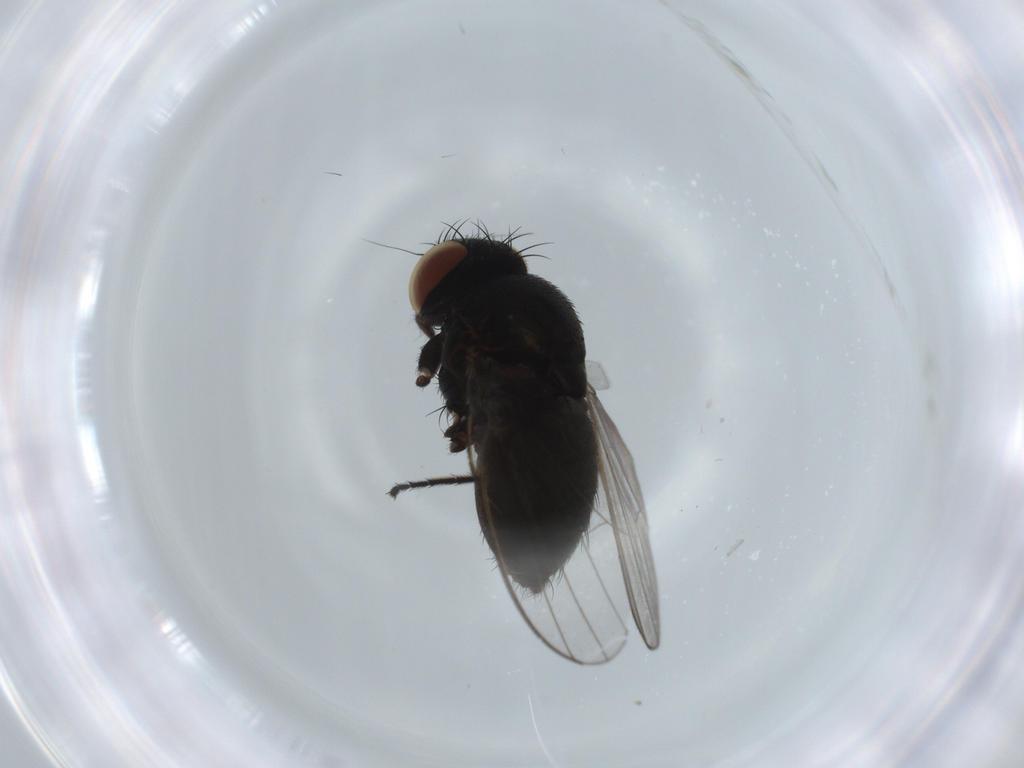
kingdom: Animalia
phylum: Arthropoda
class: Insecta
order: Diptera
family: Milichiidae
